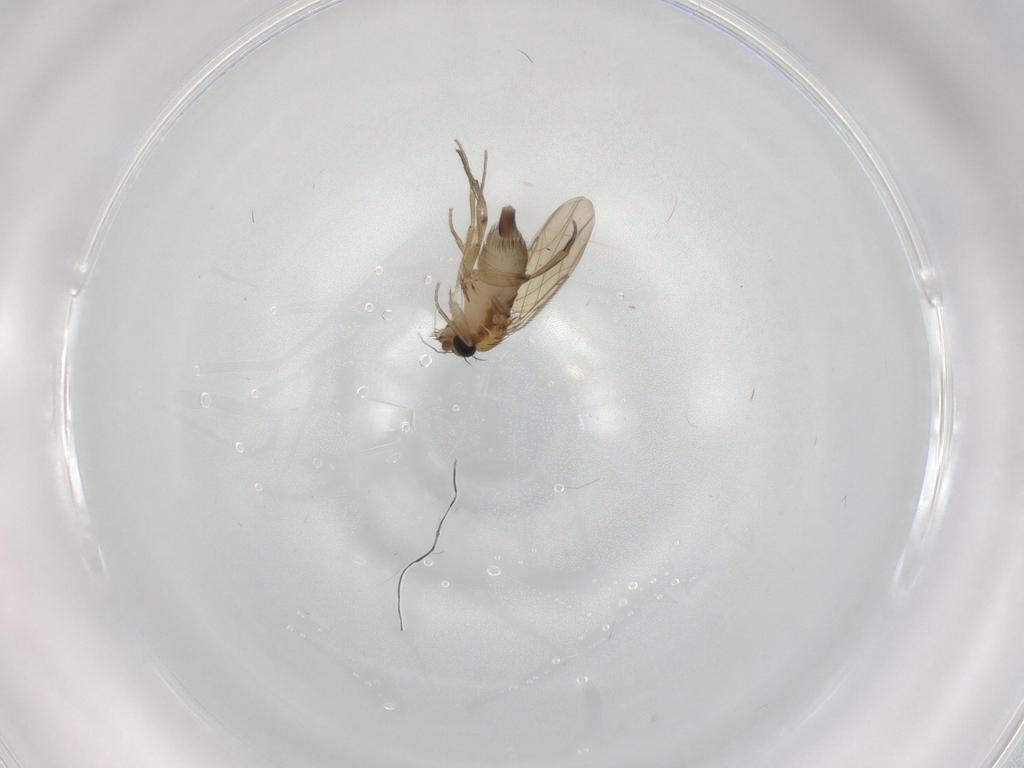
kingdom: Animalia
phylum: Arthropoda
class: Insecta
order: Diptera
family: Phoridae
